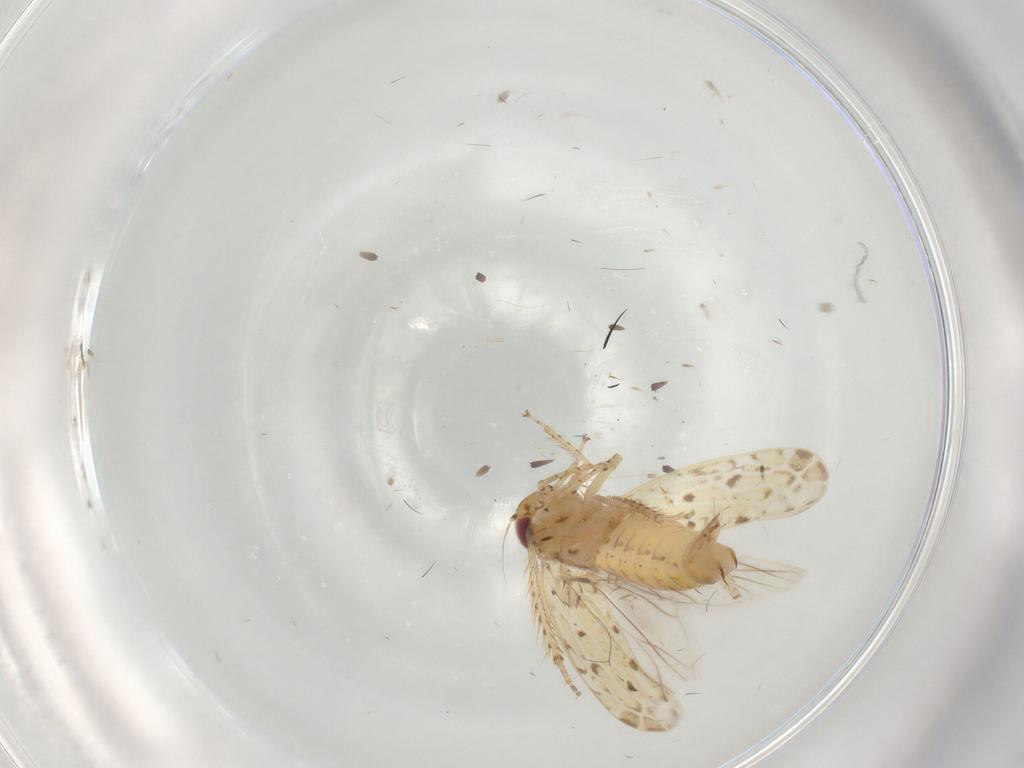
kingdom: Animalia
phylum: Arthropoda
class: Insecta
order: Hemiptera
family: Cicadellidae
